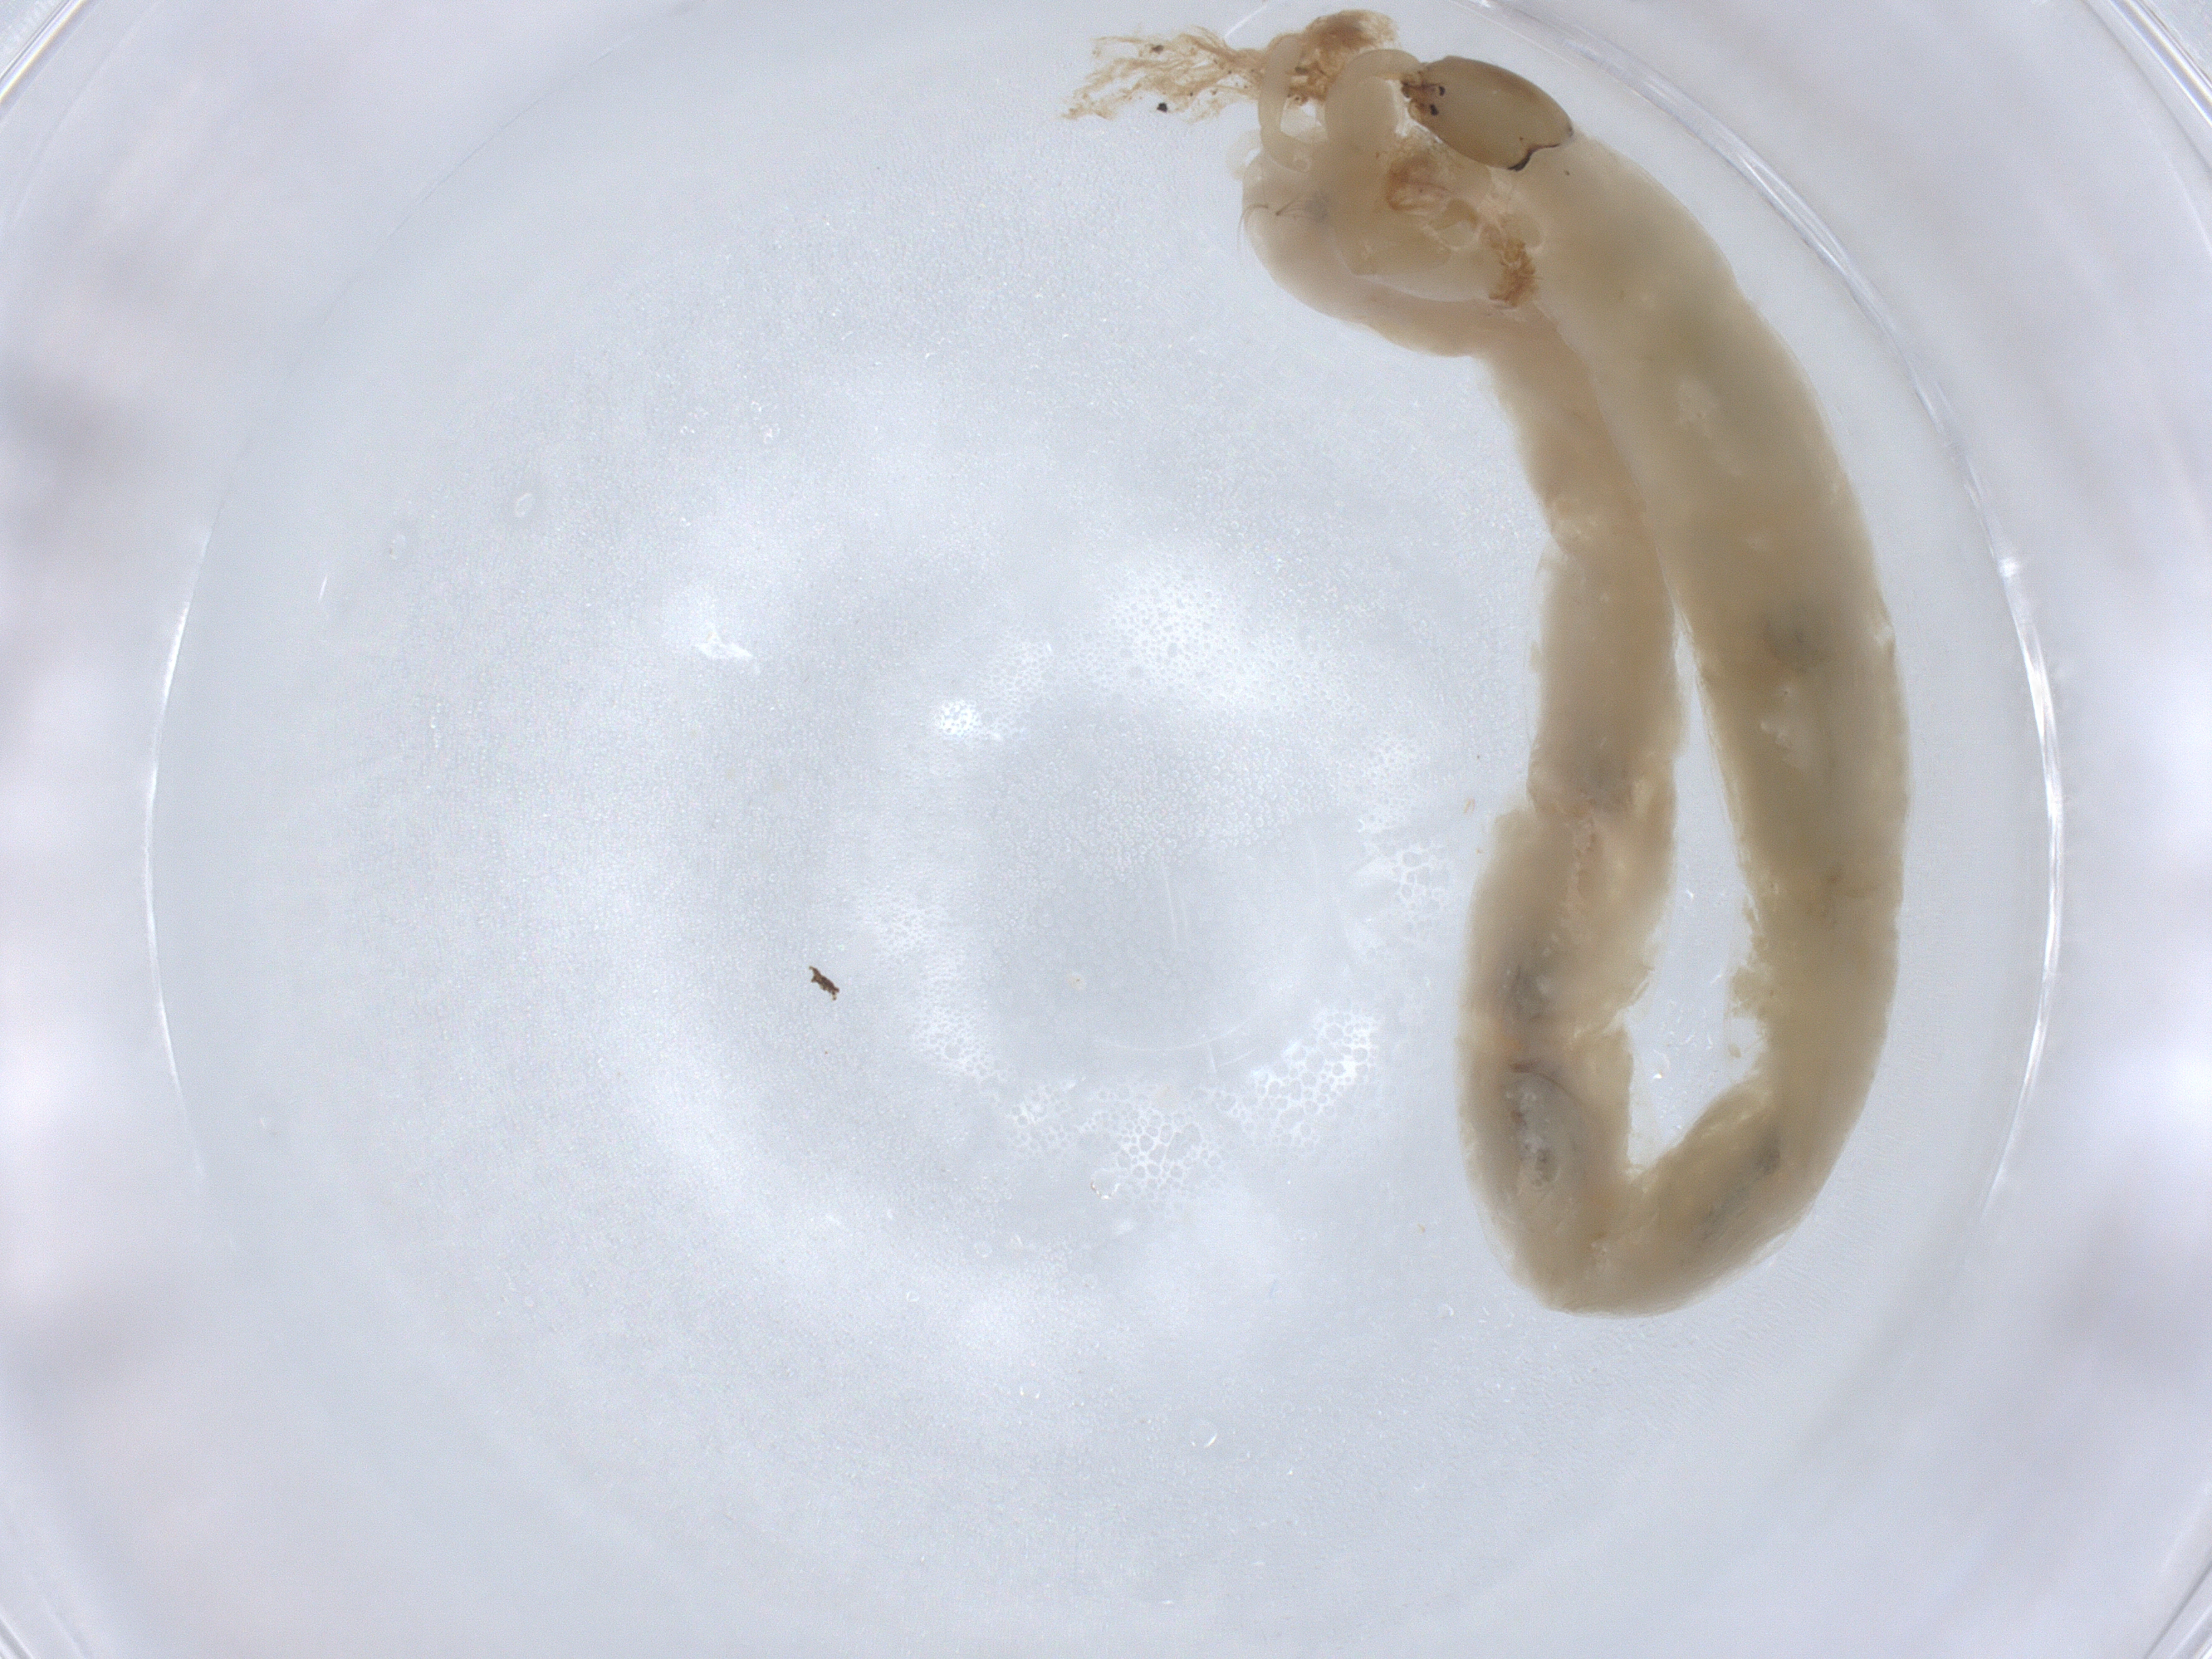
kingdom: Animalia
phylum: Arthropoda
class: Insecta
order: Diptera
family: Chironomidae
